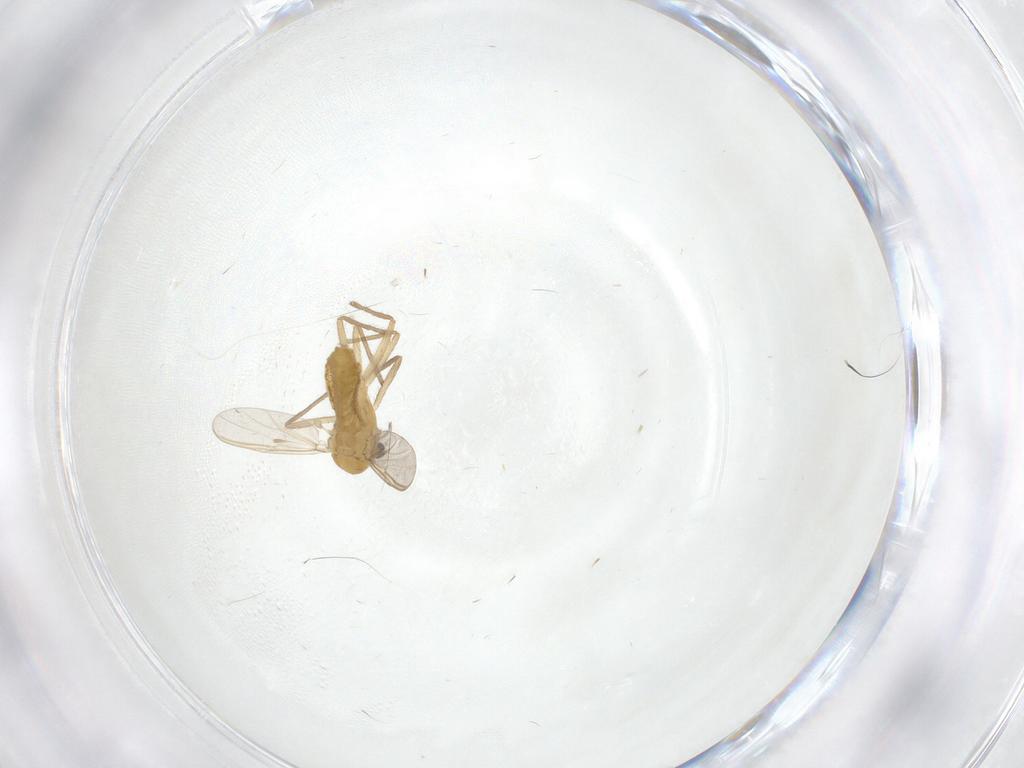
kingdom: Animalia
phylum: Arthropoda
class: Insecta
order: Diptera
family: Chironomidae
